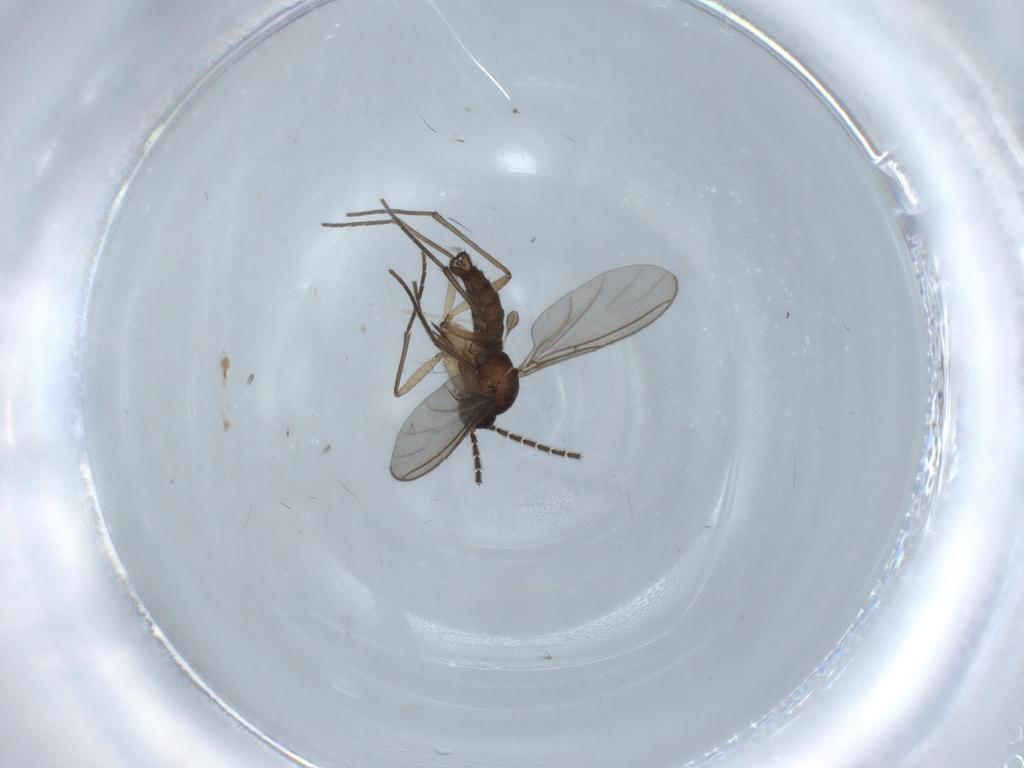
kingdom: Animalia
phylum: Arthropoda
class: Insecta
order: Diptera
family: Sciaridae
